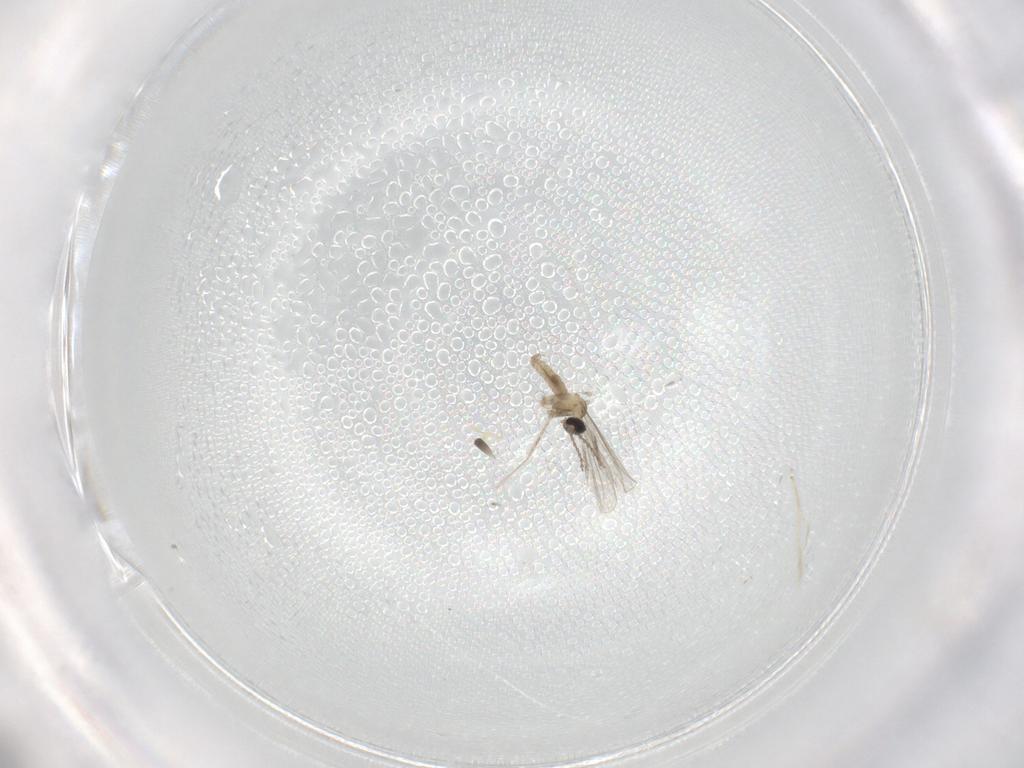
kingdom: Animalia
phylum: Arthropoda
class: Insecta
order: Diptera
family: Cecidomyiidae
